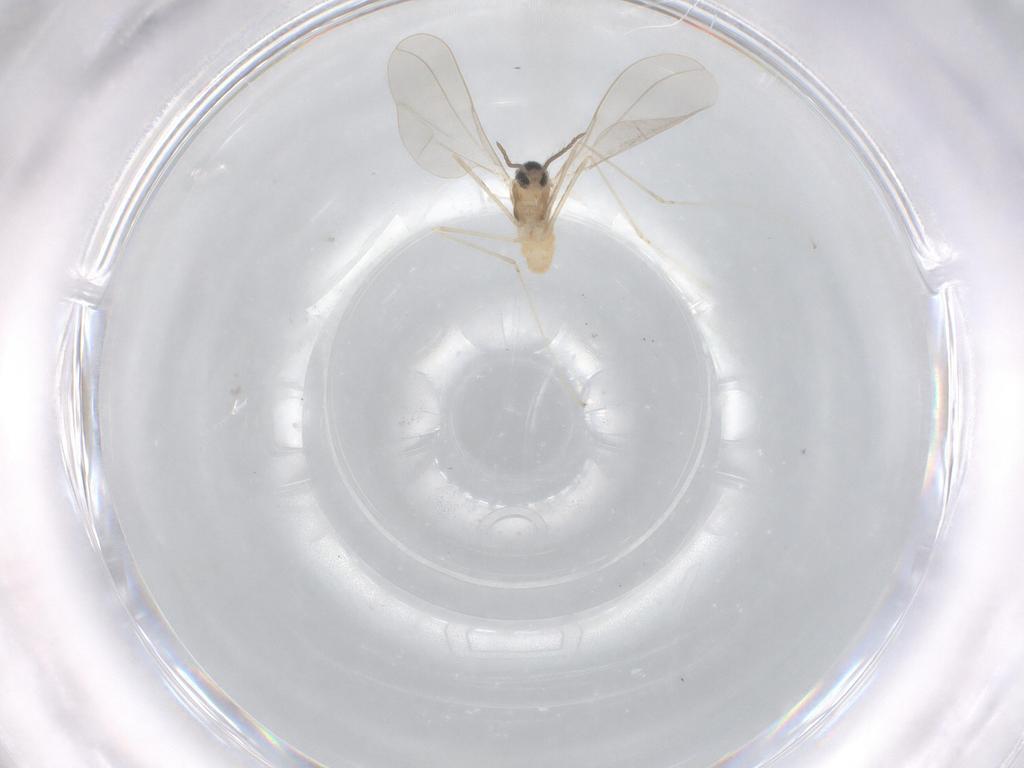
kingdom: Animalia
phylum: Arthropoda
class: Insecta
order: Diptera
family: Cecidomyiidae
